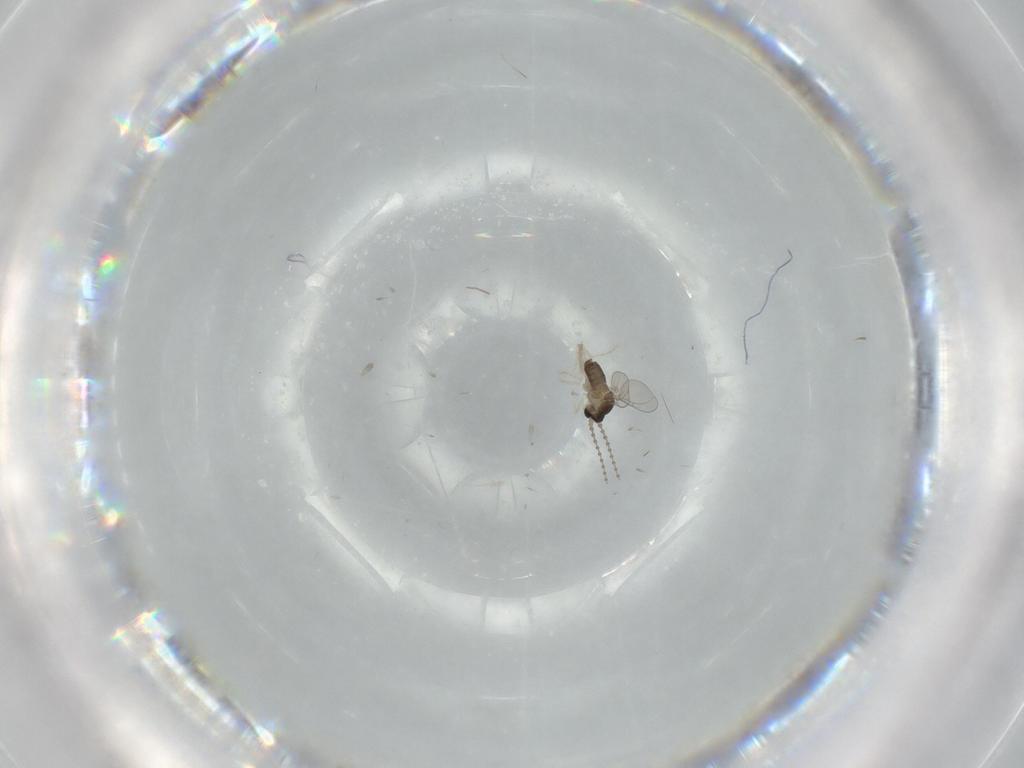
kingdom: Animalia
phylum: Arthropoda
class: Insecta
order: Diptera
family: Cecidomyiidae
